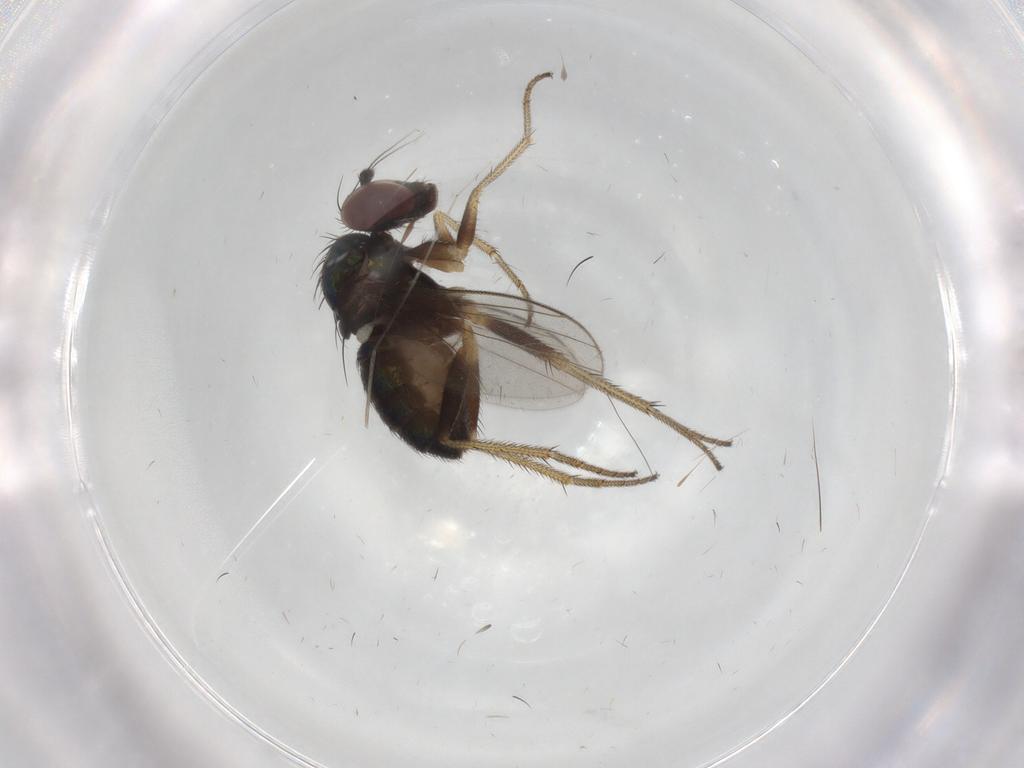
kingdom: Animalia
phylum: Arthropoda
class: Insecta
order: Diptera
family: Dolichopodidae
